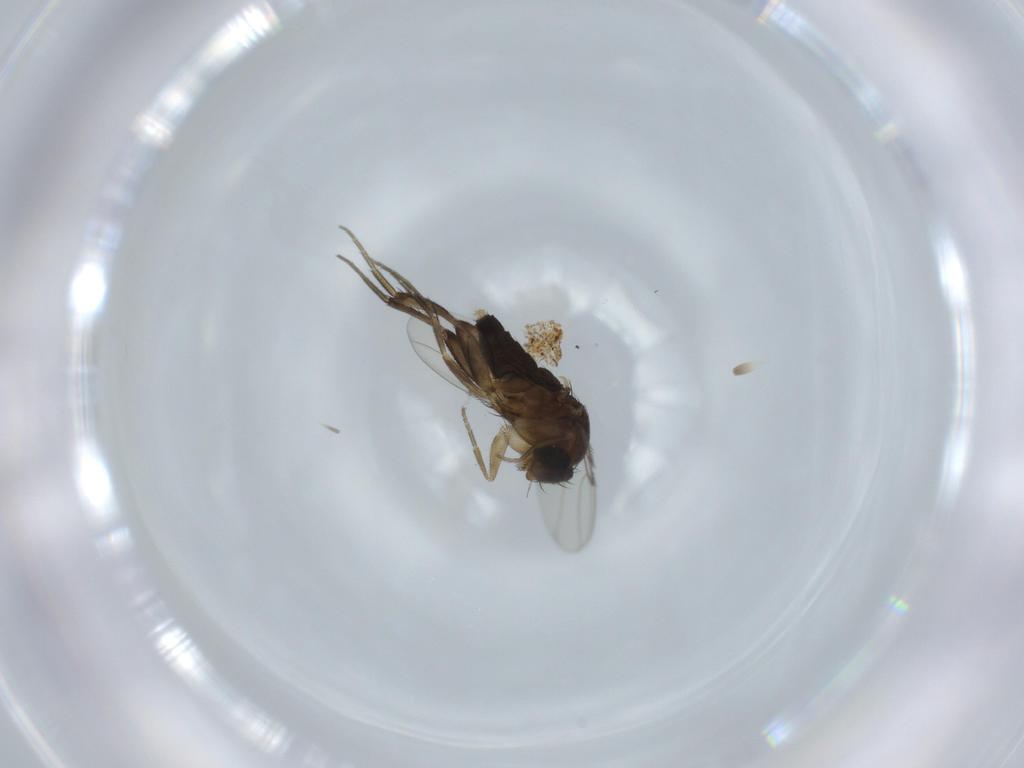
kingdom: Animalia
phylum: Arthropoda
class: Insecta
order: Diptera
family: Phoridae
